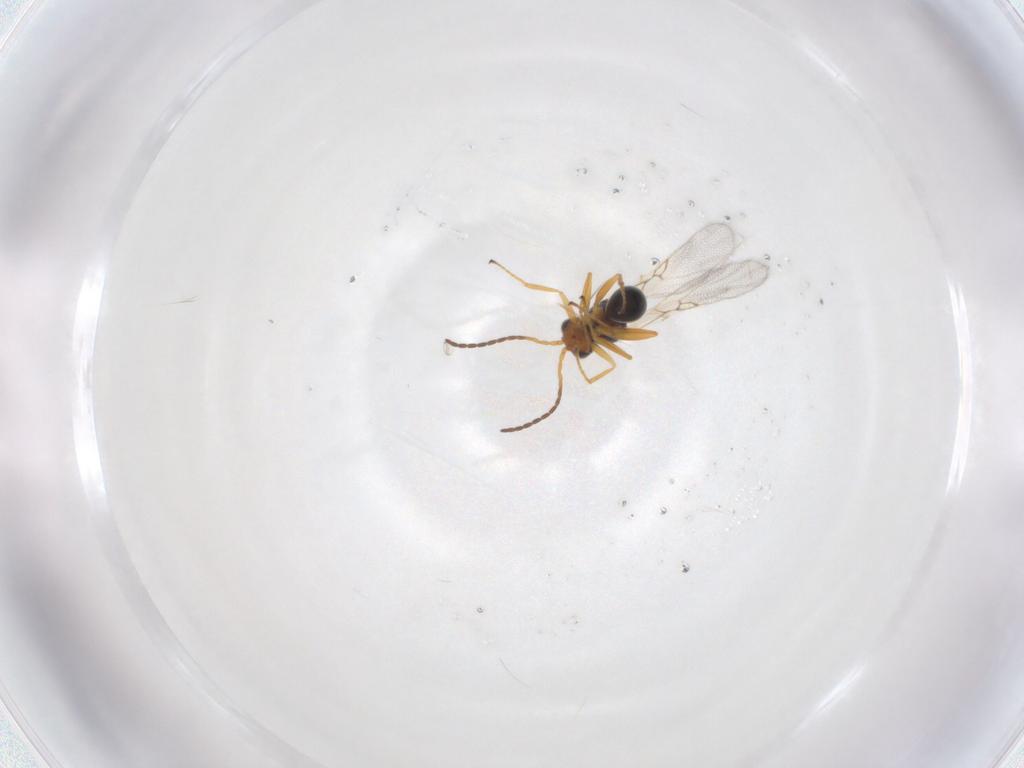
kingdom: Animalia
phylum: Arthropoda
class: Insecta
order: Hymenoptera
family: Figitidae
